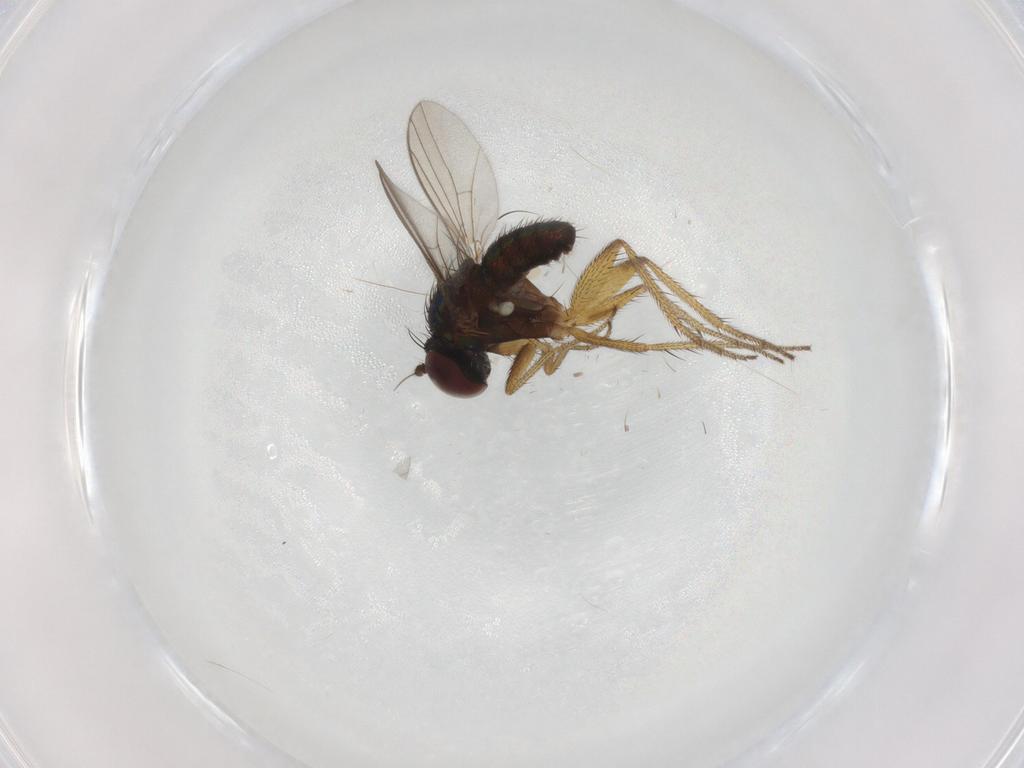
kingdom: Animalia
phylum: Arthropoda
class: Insecta
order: Diptera
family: Dolichopodidae
